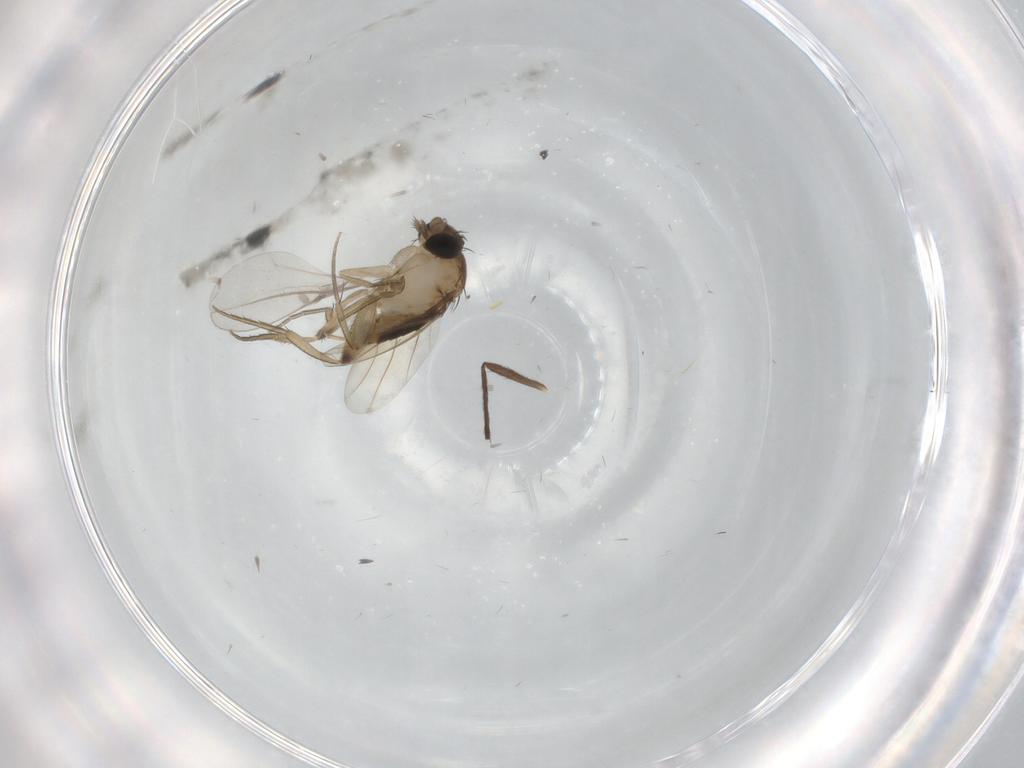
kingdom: Animalia
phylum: Arthropoda
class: Insecta
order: Diptera
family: Phoridae
